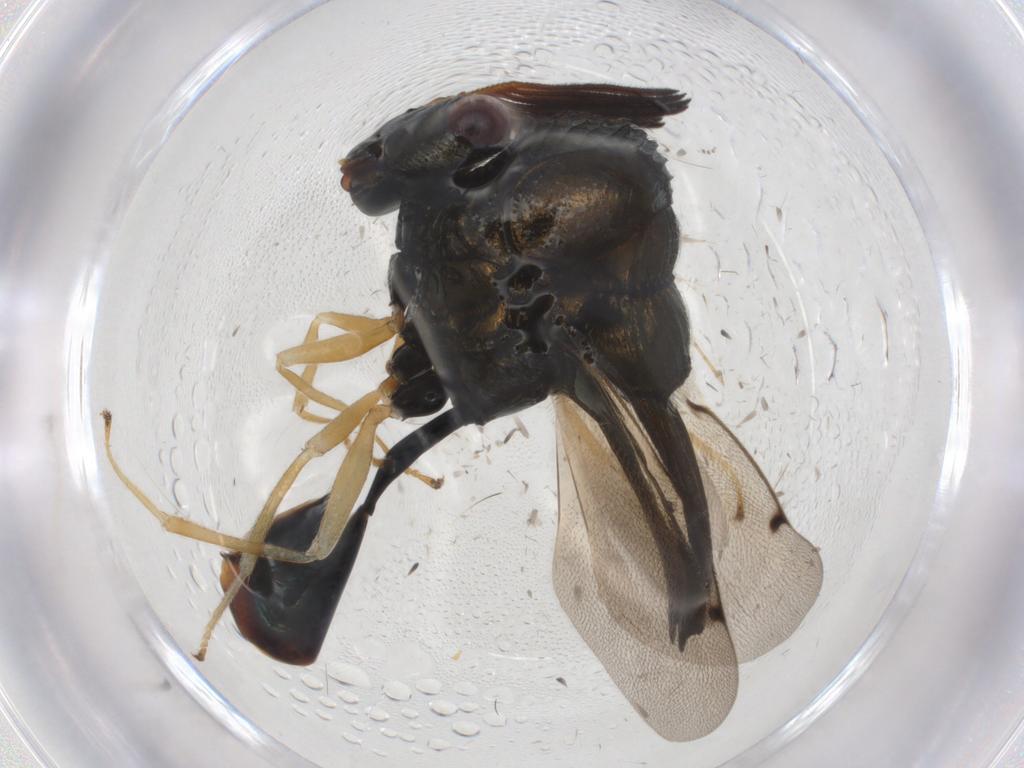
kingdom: Animalia
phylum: Arthropoda
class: Insecta
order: Hymenoptera
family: Formicidae
